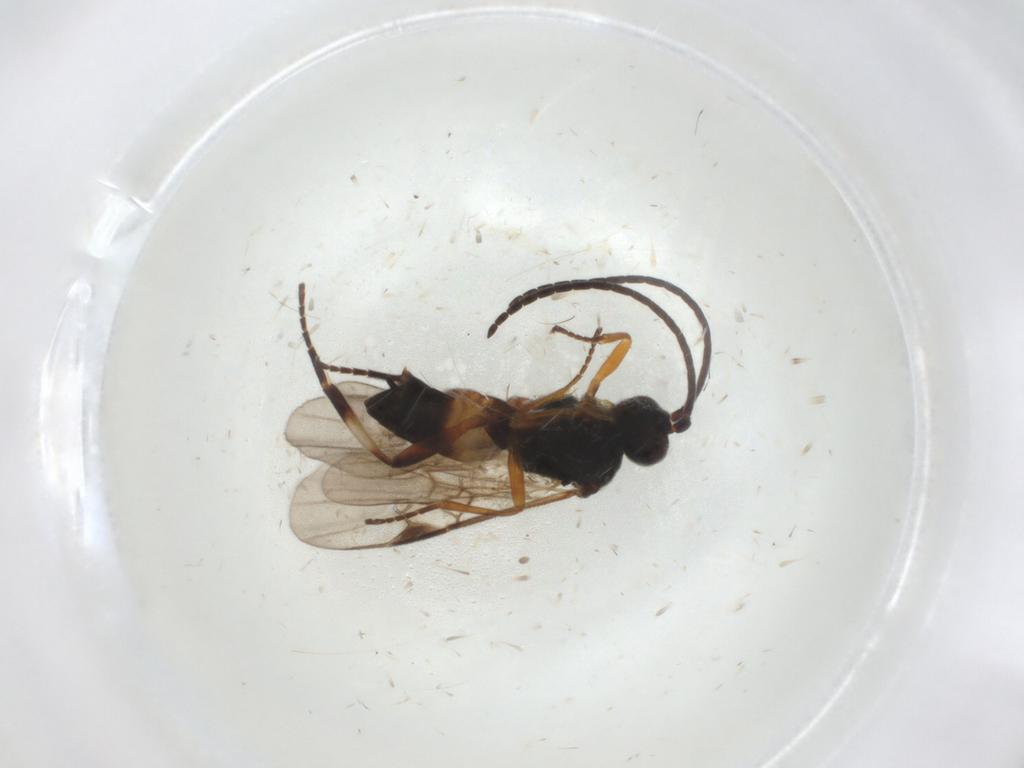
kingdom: Animalia
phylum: Arthropoda
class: Insecta
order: Hymenoptera
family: Braconidae
